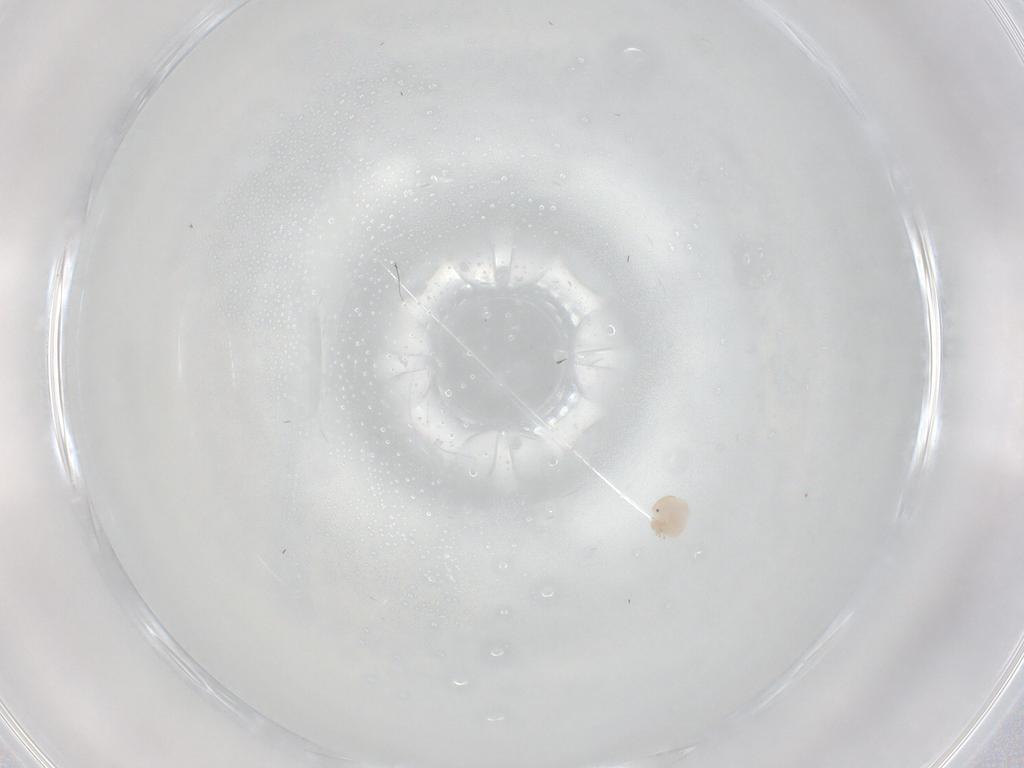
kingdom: Animalia
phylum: Arthropoda
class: Arachnida
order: Trombidiformes
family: Arrenuridae
